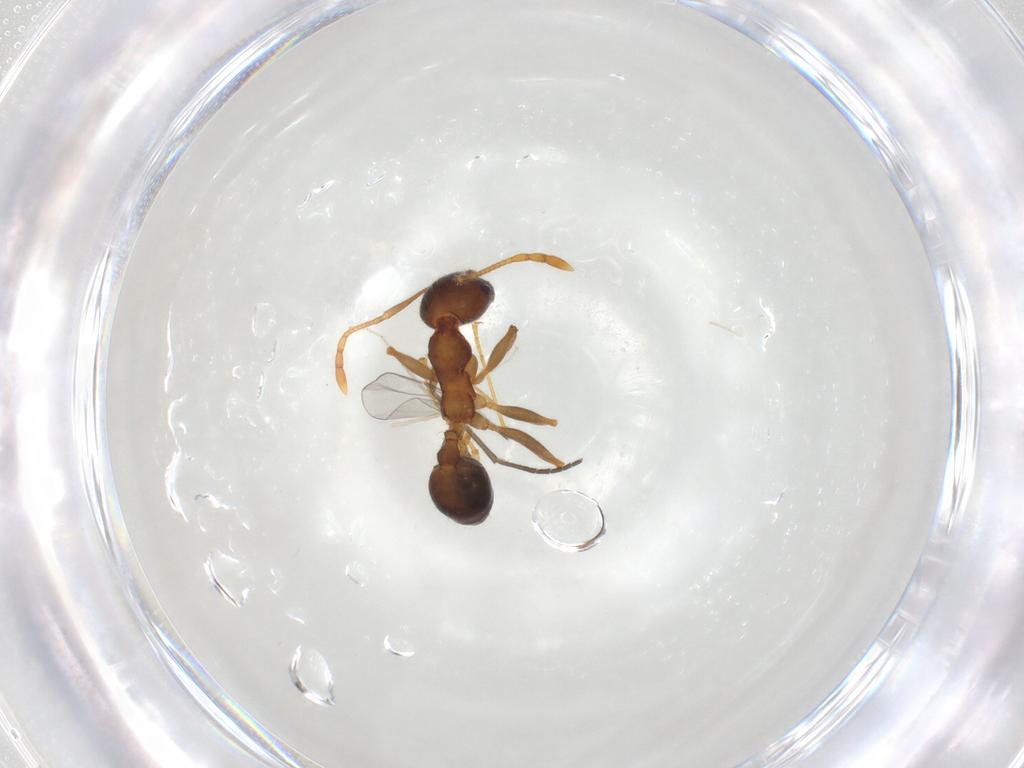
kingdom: Animalia
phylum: Arthropoda
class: Insecta
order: Hymenoptera
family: Formicidae
